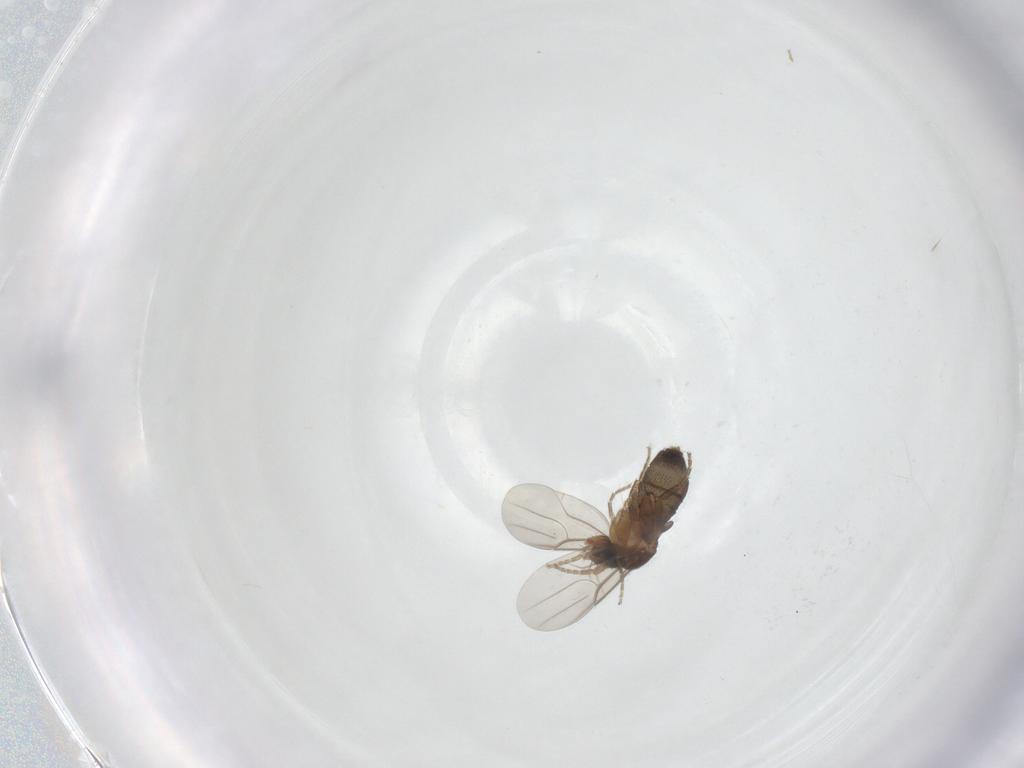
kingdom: Animalia
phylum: Arthropoda
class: Insecta
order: Diptera
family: Phoridae
